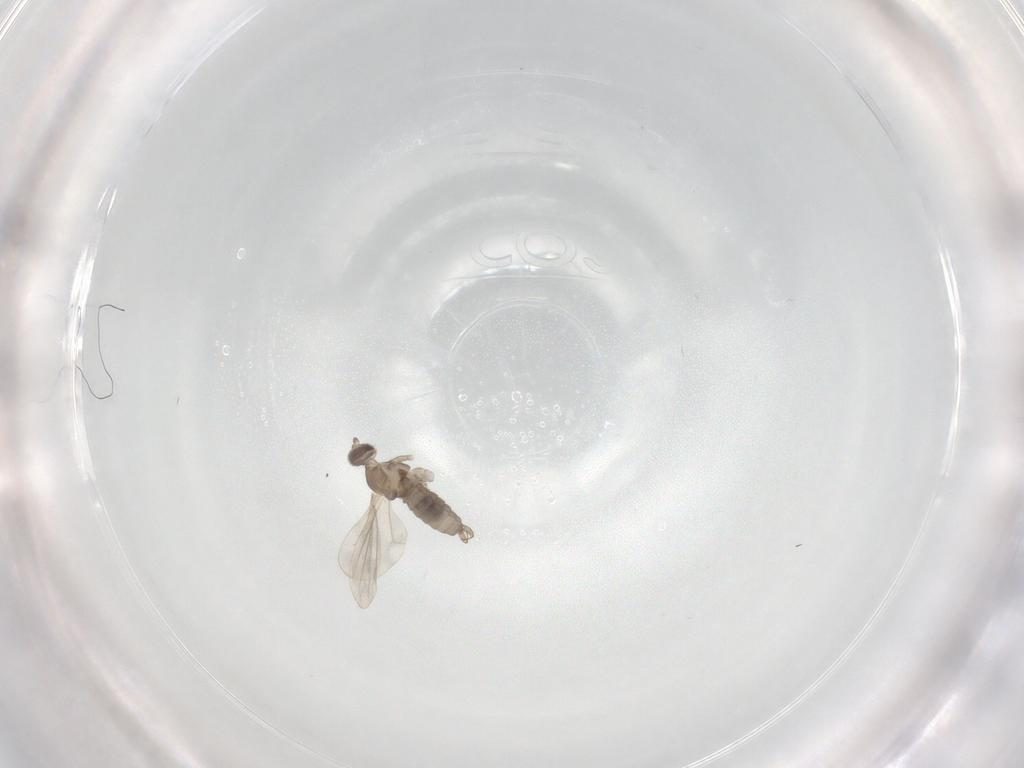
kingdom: Animalia
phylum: Arthropoda
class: Insecta
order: Diptera
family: Cecidomyiidae
